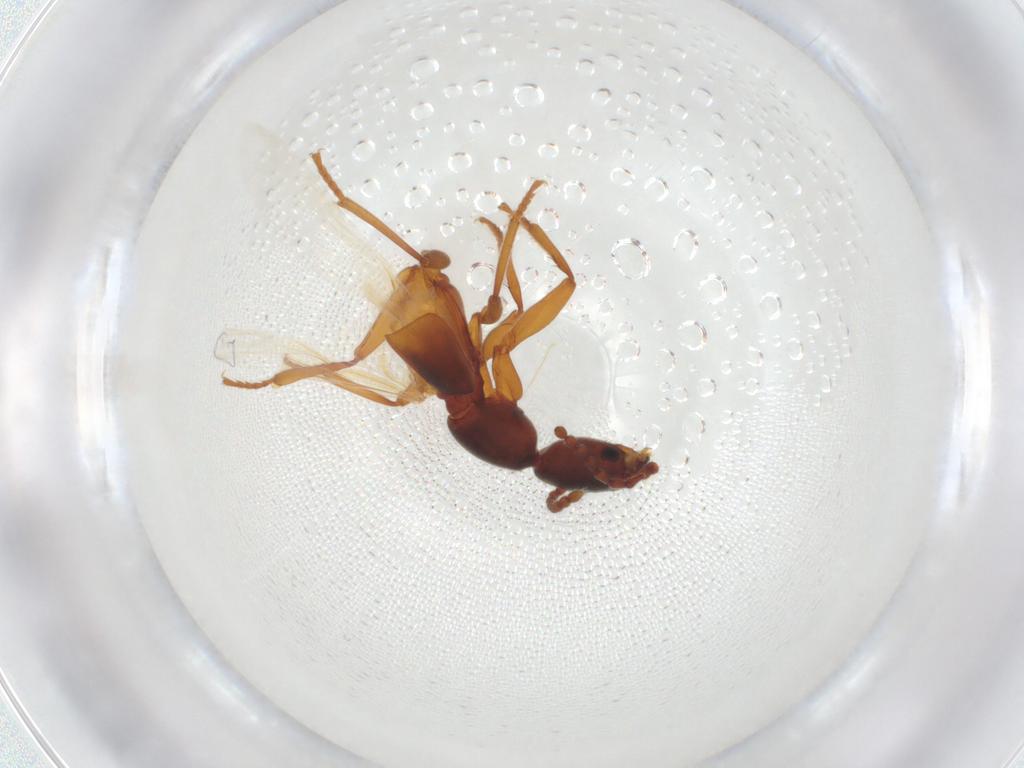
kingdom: Animalia
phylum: Arthropoda
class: Insecta
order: Coleoptera
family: Staphylinidae
